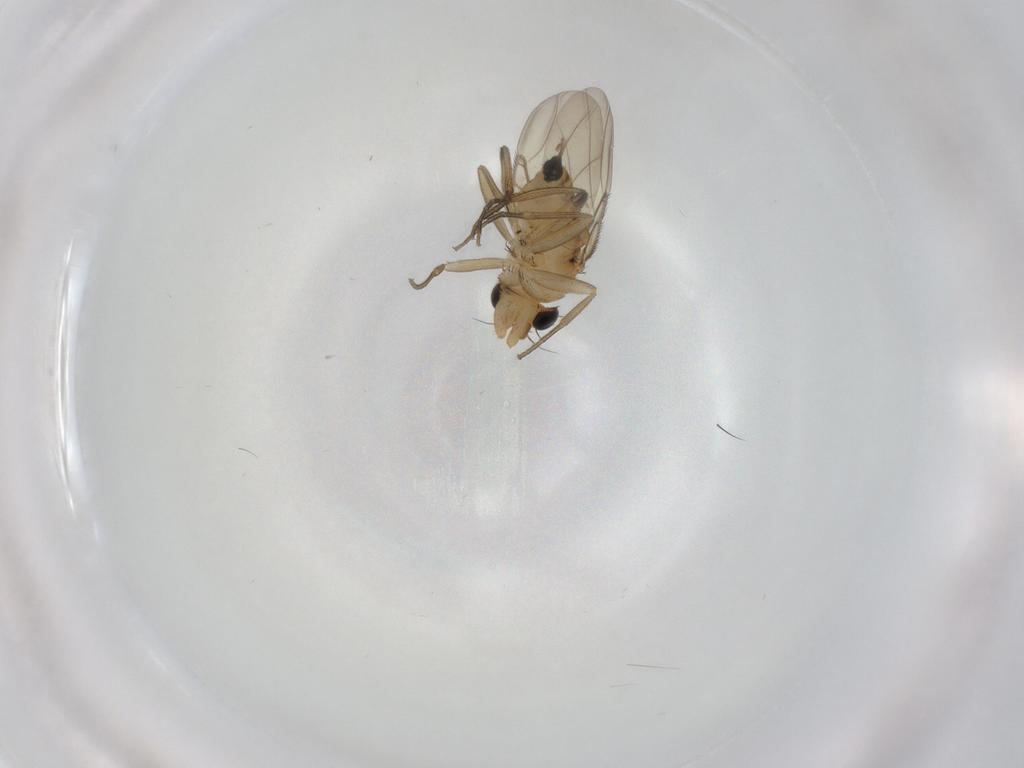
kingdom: Animalia
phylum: Arthropoda
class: Insecta
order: Diptera
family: Phoridae
